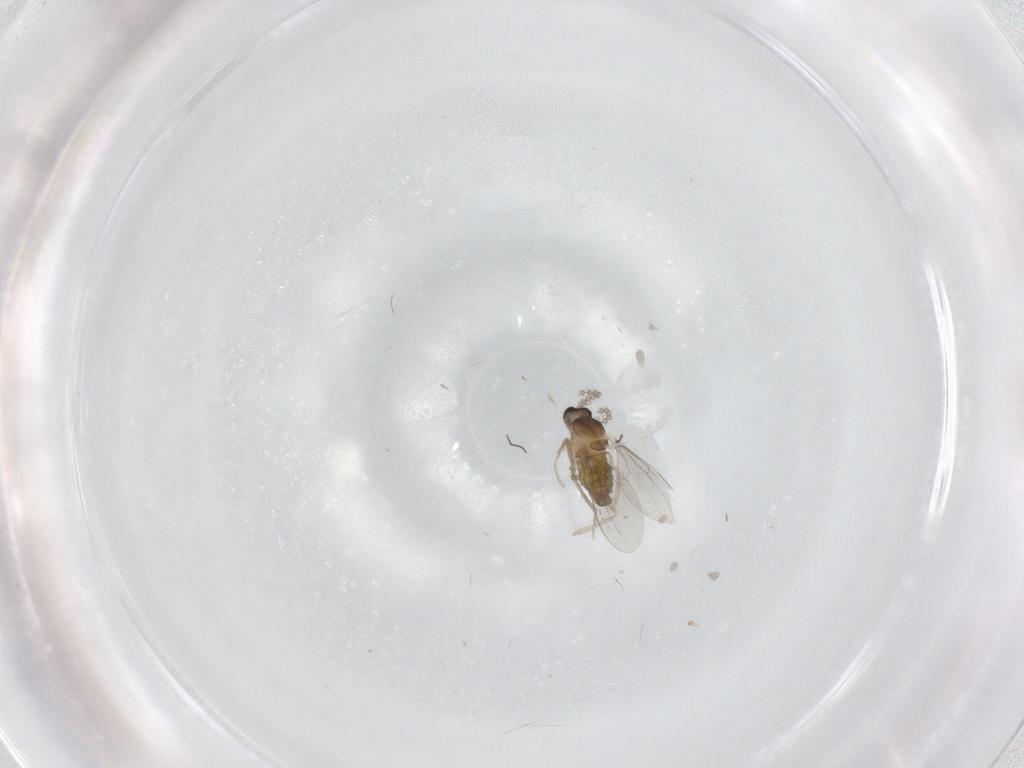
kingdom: Animalia
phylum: Arthropoda
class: Insecta
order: Diptera
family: Phoridae
